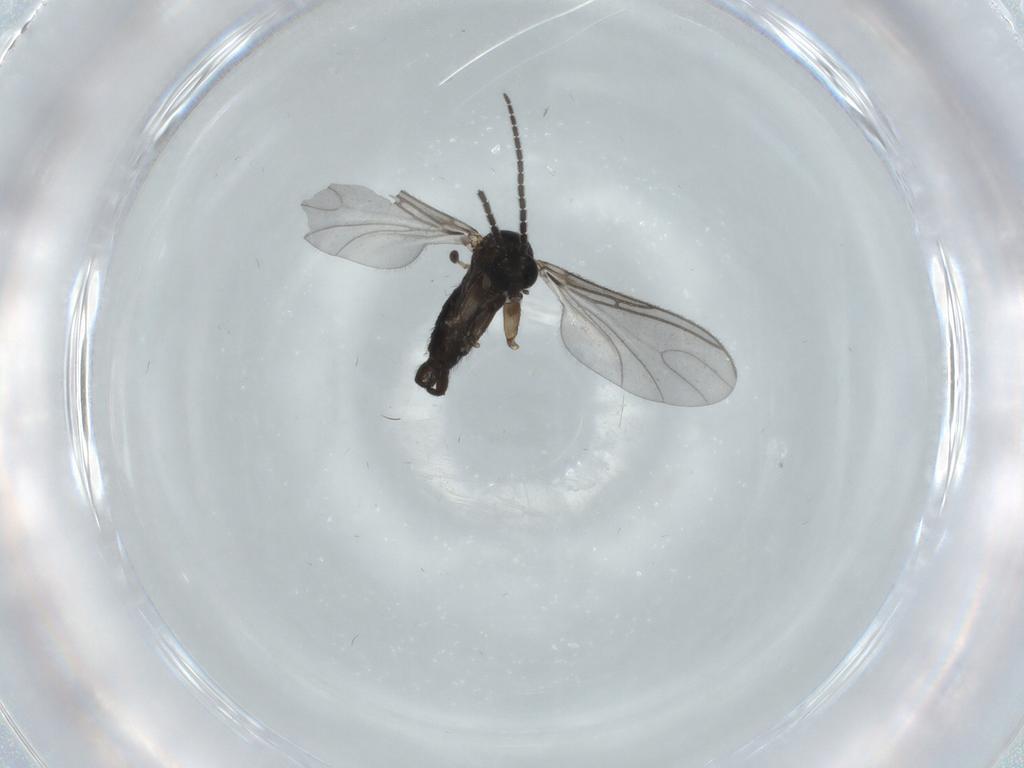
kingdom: Animalia
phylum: Arthropoda
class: Insecta
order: Diptera
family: Sciaridae
